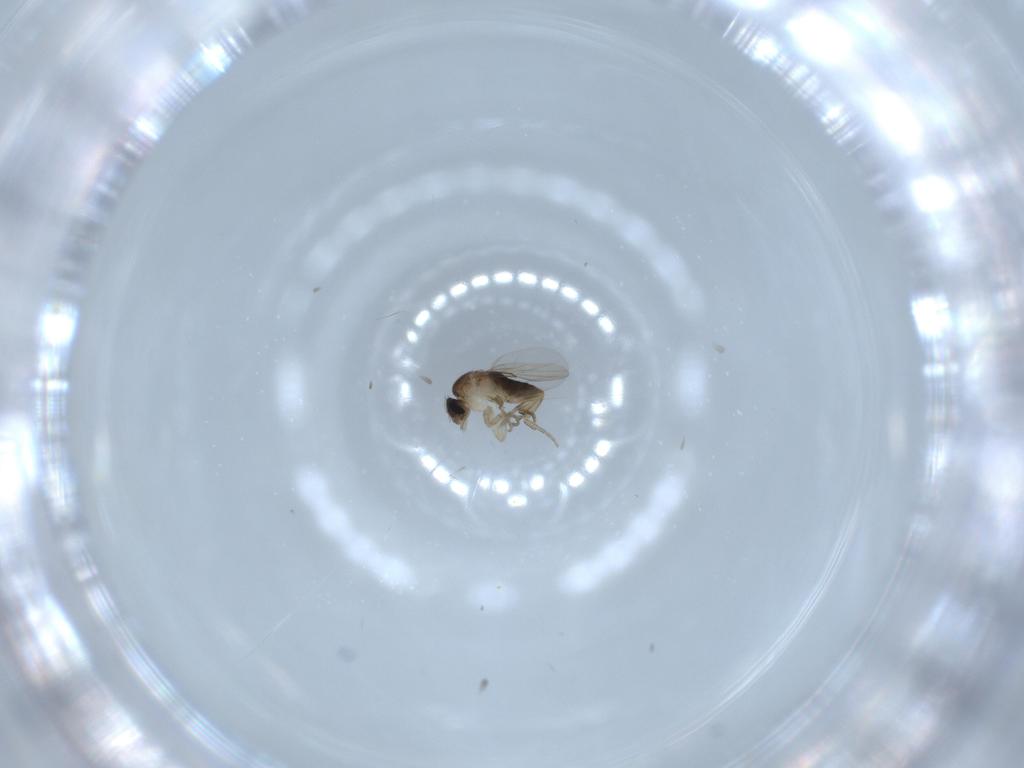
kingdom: Animalia
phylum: Arthropoda
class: Insecta
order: Diptera
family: Phoridae
